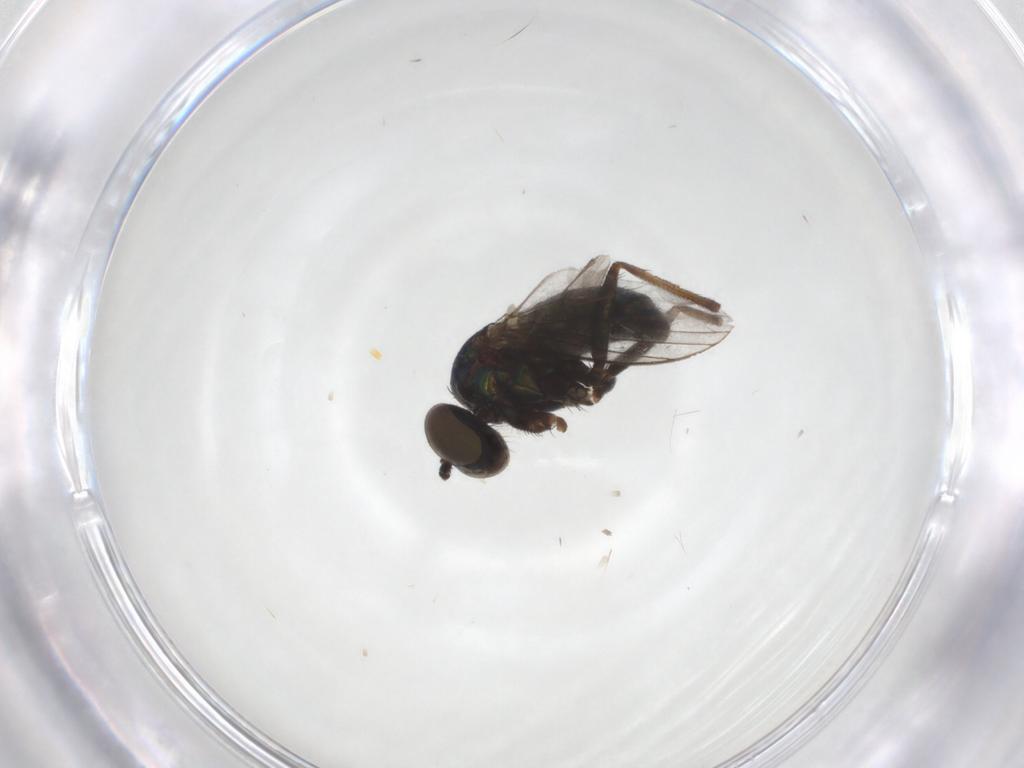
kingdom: Animalia
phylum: Arthropoda
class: Insecta
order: Diptera
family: Dolichopodidae
